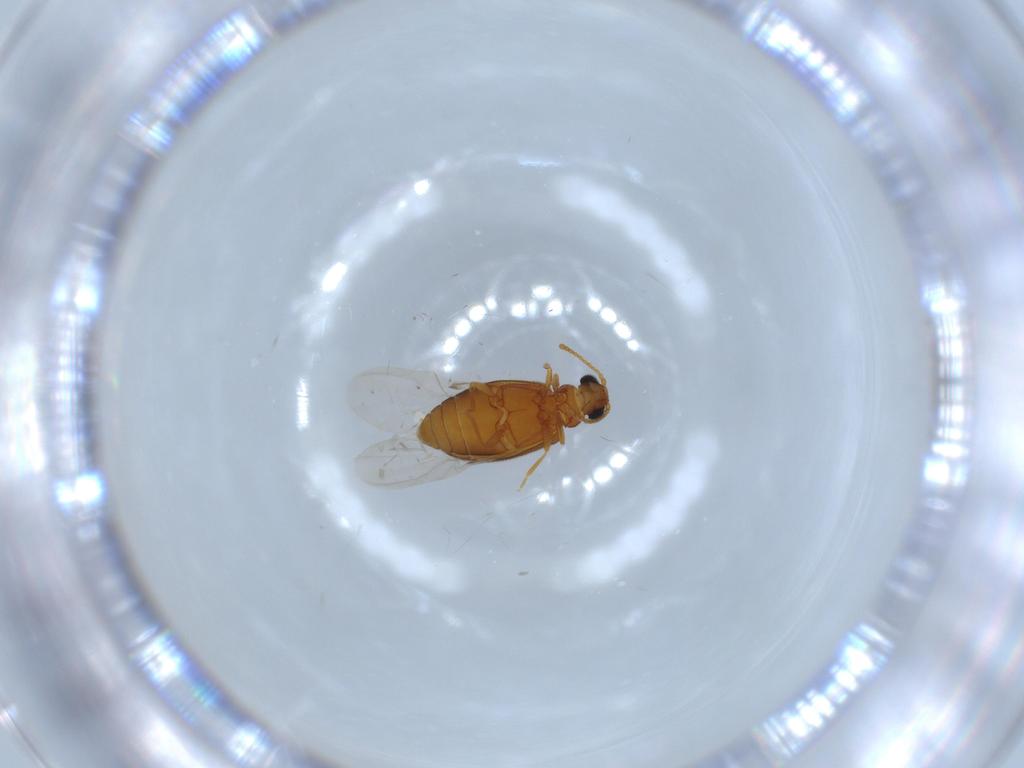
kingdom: Animalia
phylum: Arthropoda
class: Insecta
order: Coleoptera
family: Aderidae
